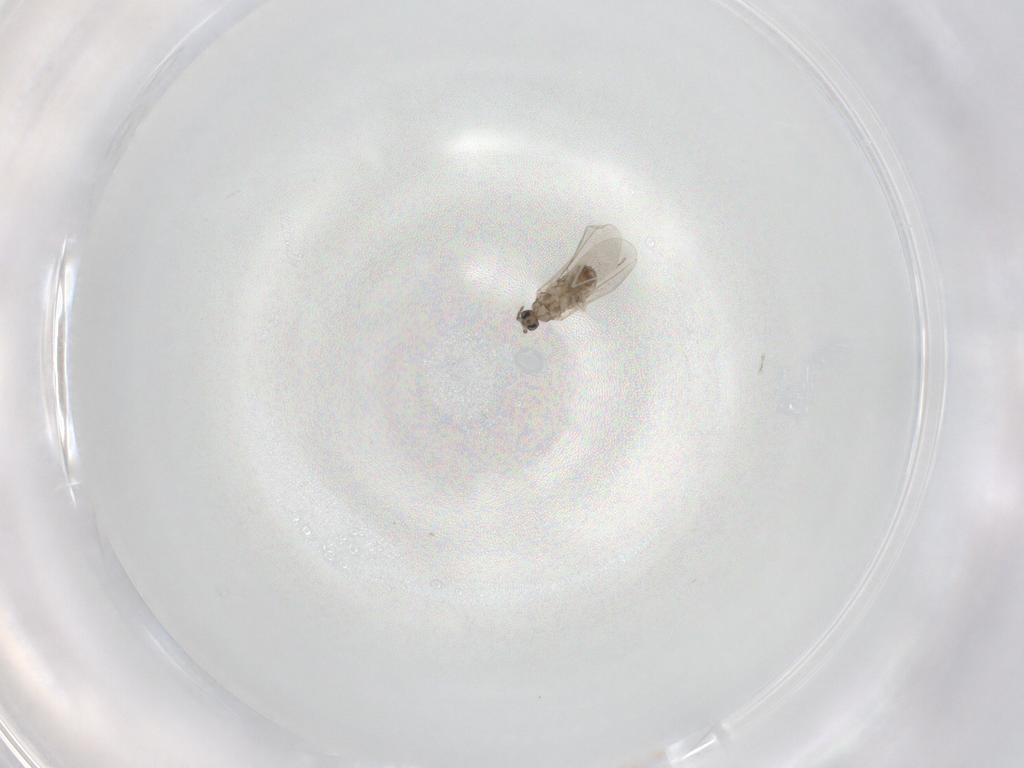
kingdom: Animalia
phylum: Arthropoda
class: Insecta
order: Diptera
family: Cecidomyiidae
